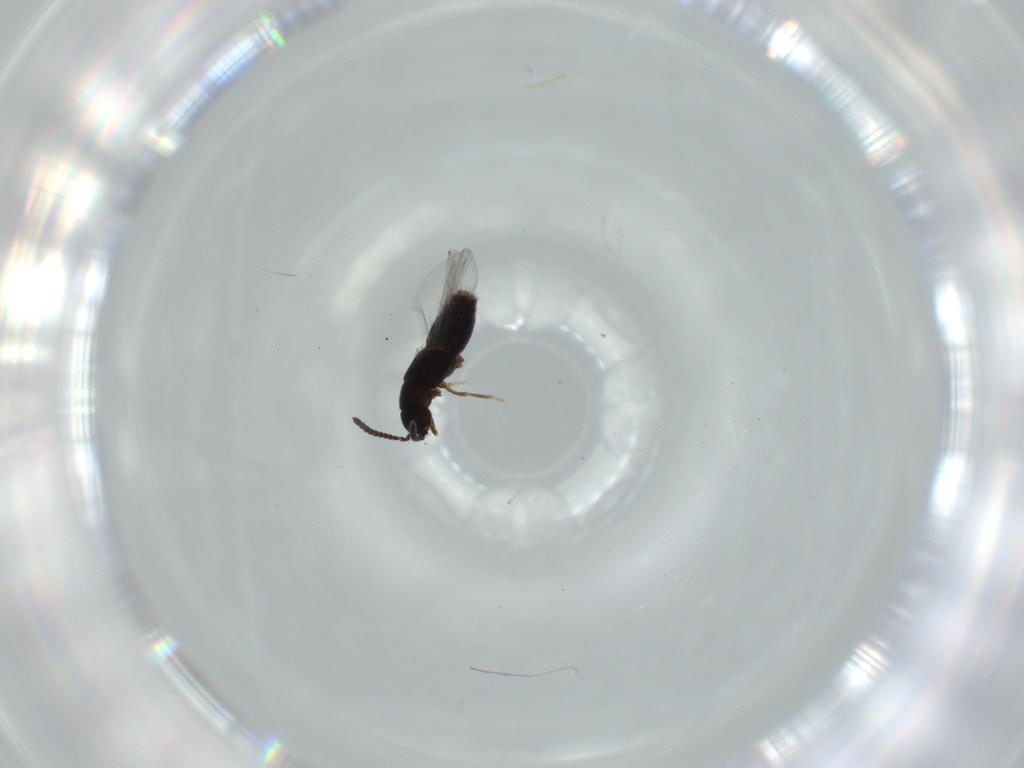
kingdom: Animalia
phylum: Arthropoda
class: Insecta
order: Coleoptera
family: Staphylinidae
